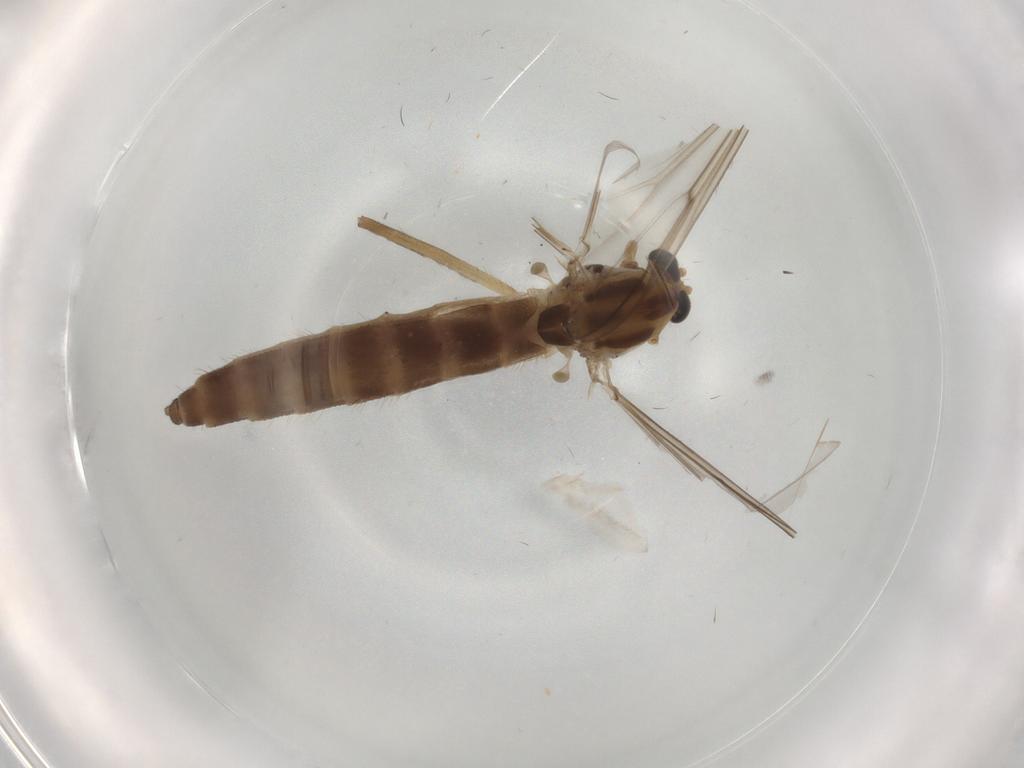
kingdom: Animalia
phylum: Arthropoda
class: Insecta
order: Diptera
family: Chironomidae
